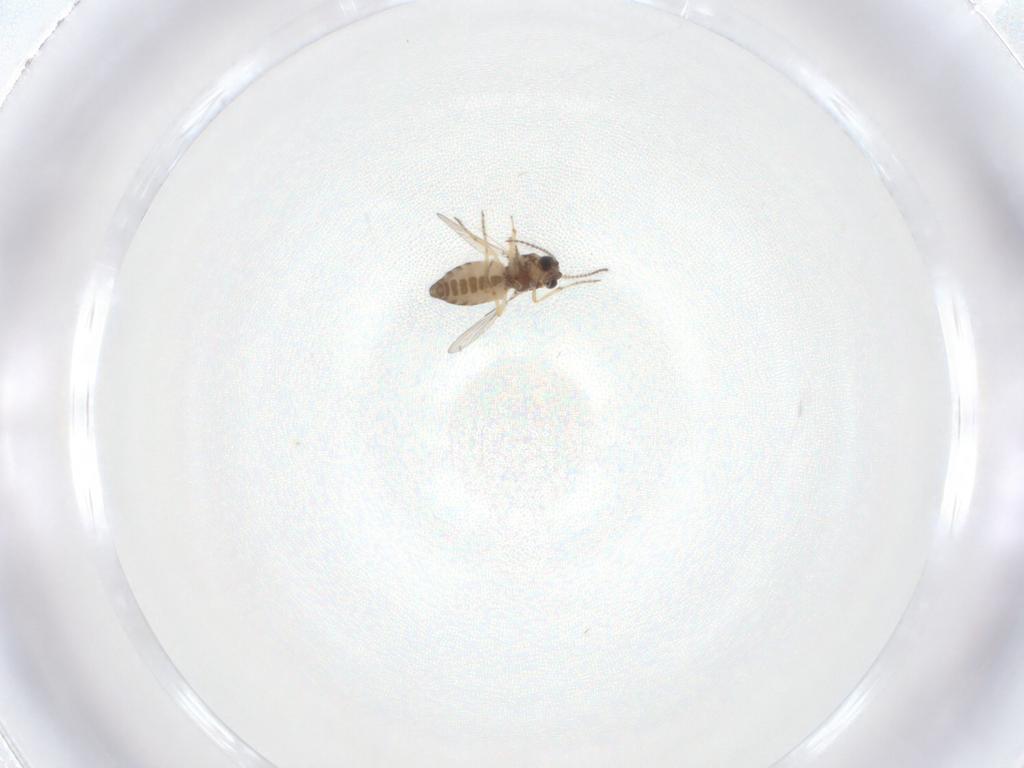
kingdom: Animalia
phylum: Arthropoda
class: Insecta
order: Diptera
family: Ceratopogonidae
